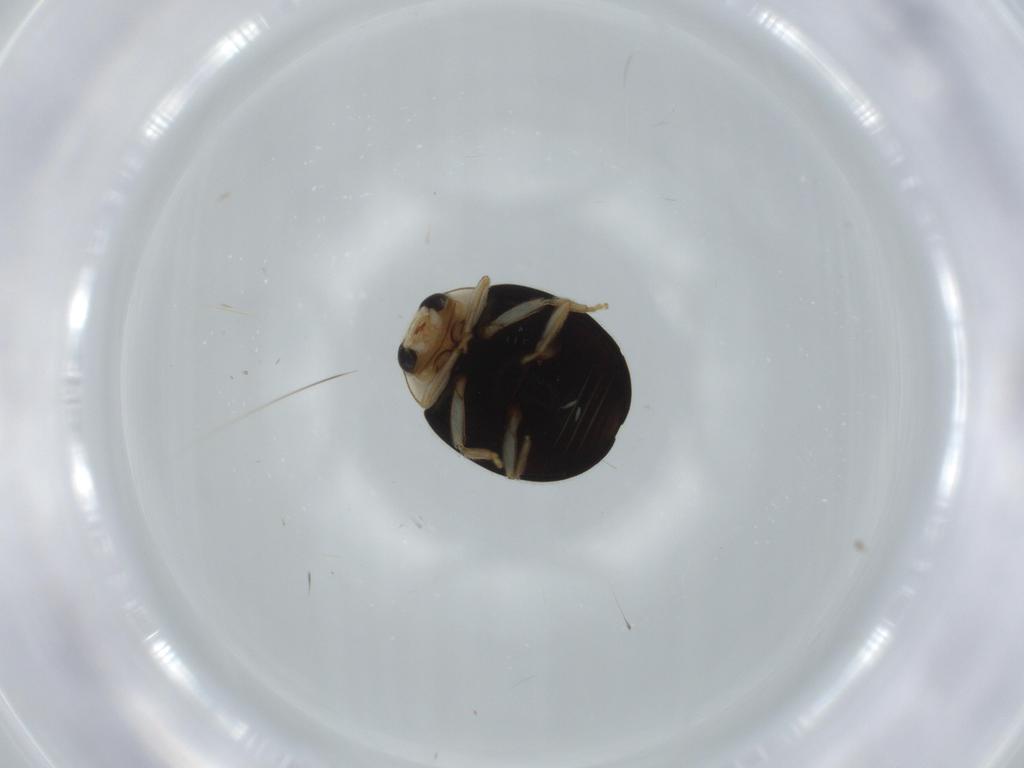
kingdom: Animalia
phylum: Arthropoda
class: Insecta
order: Coleoptera
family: Coccinellidae
